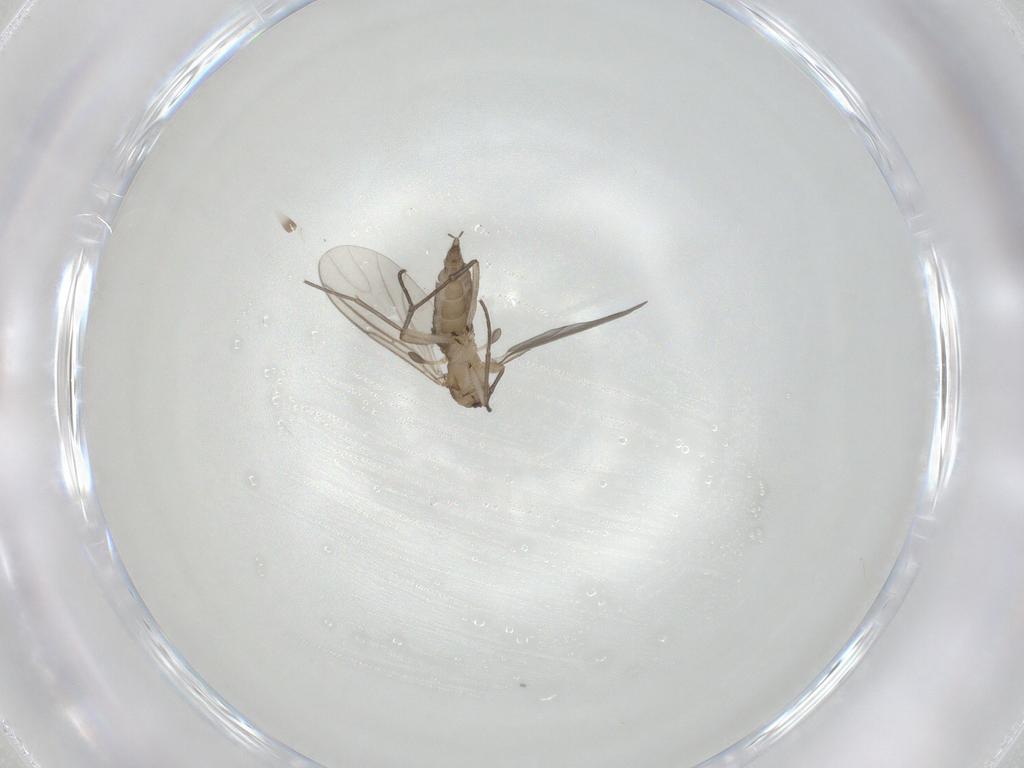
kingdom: Animalia
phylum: Arthropoda
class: Insecta
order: Diptera
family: Sciaridae
